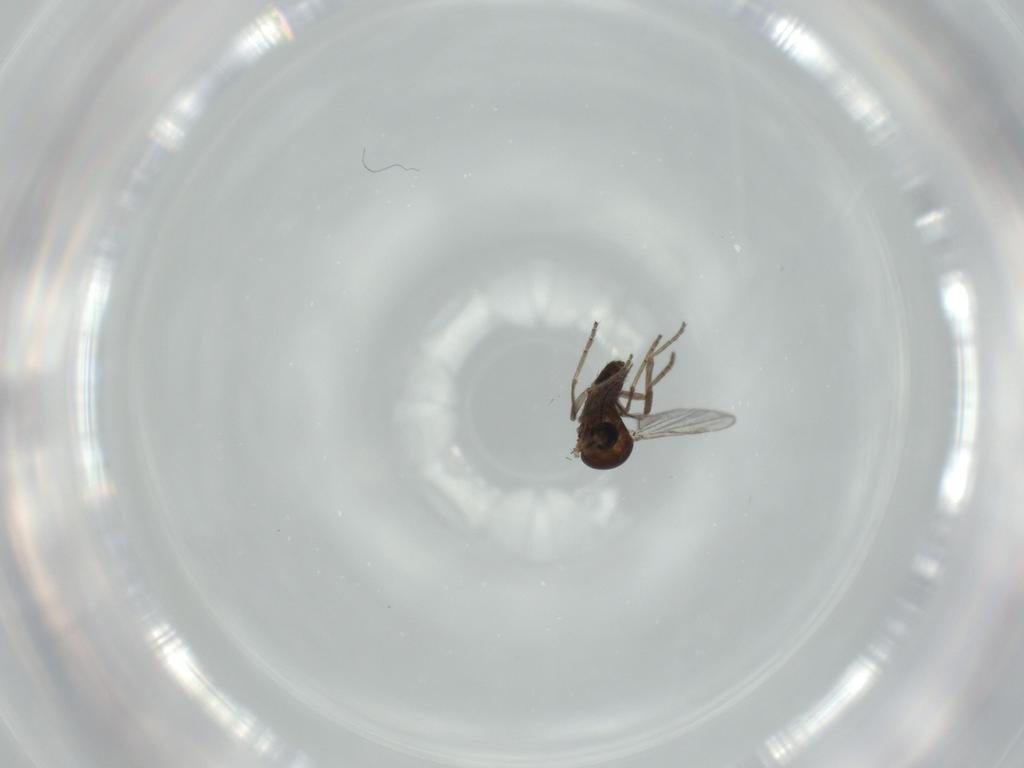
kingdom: Animalia
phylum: Arthropoda
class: Insecta
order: Diptera
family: Ceratopogonidae
